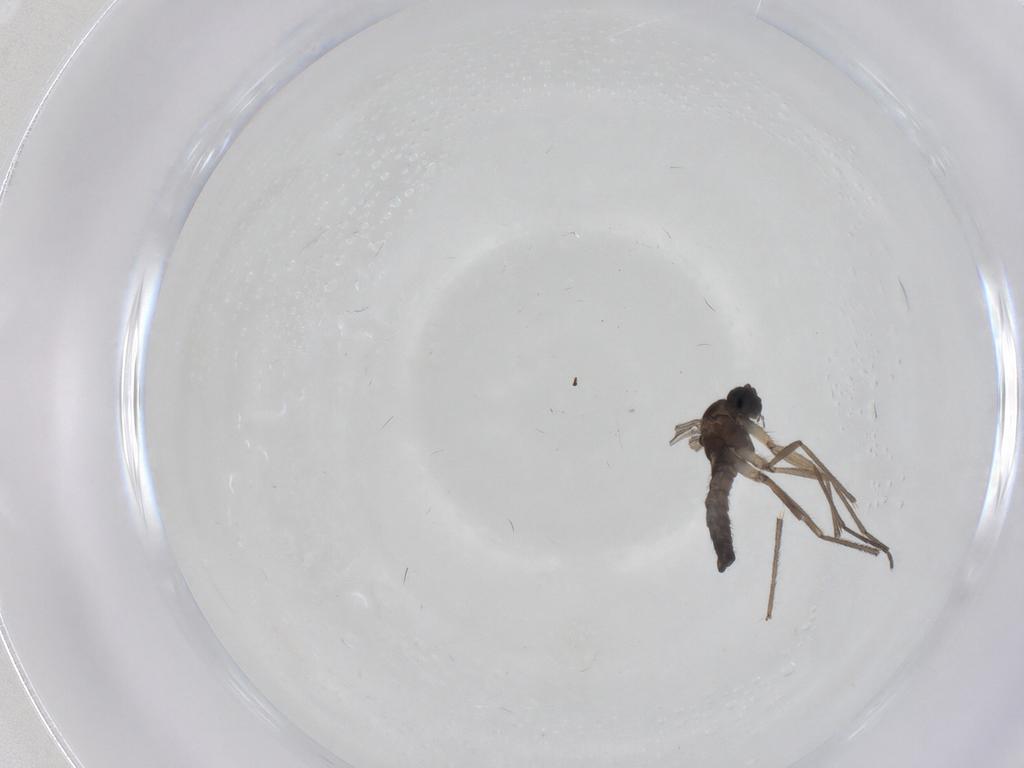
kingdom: Animalia
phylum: Arthropoda
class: Insecta
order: Diptera
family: Sciaridae
